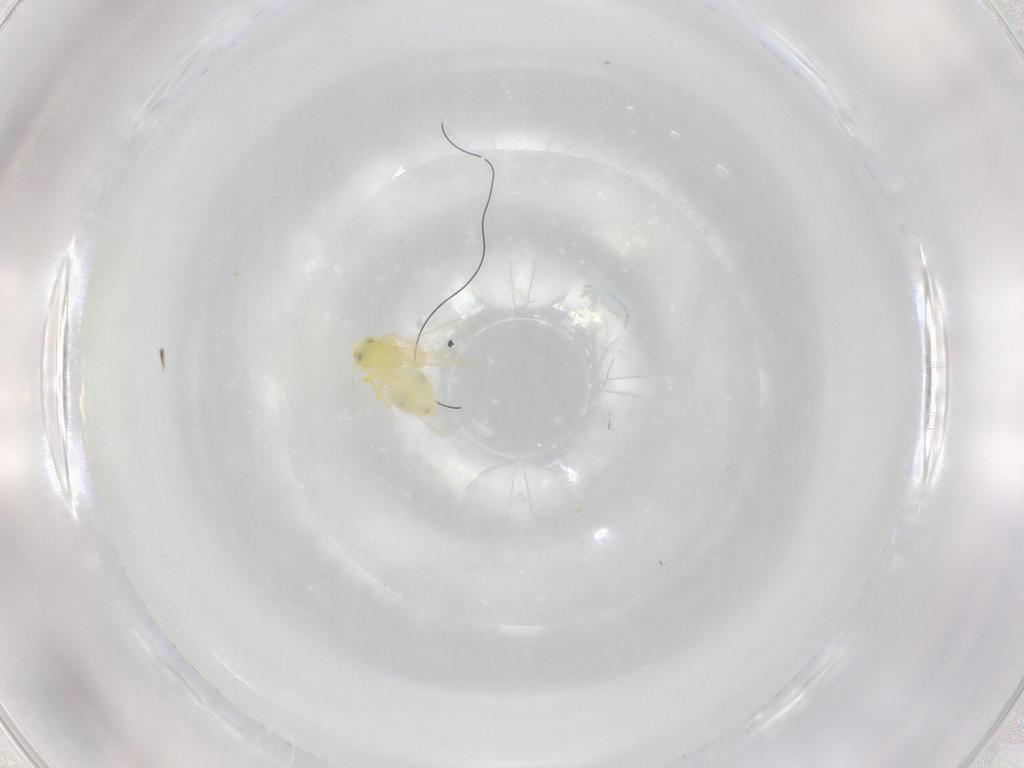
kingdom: Animalia
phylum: Arthropoda
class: Insecta
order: Hemiptera
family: Aleyrodidae
